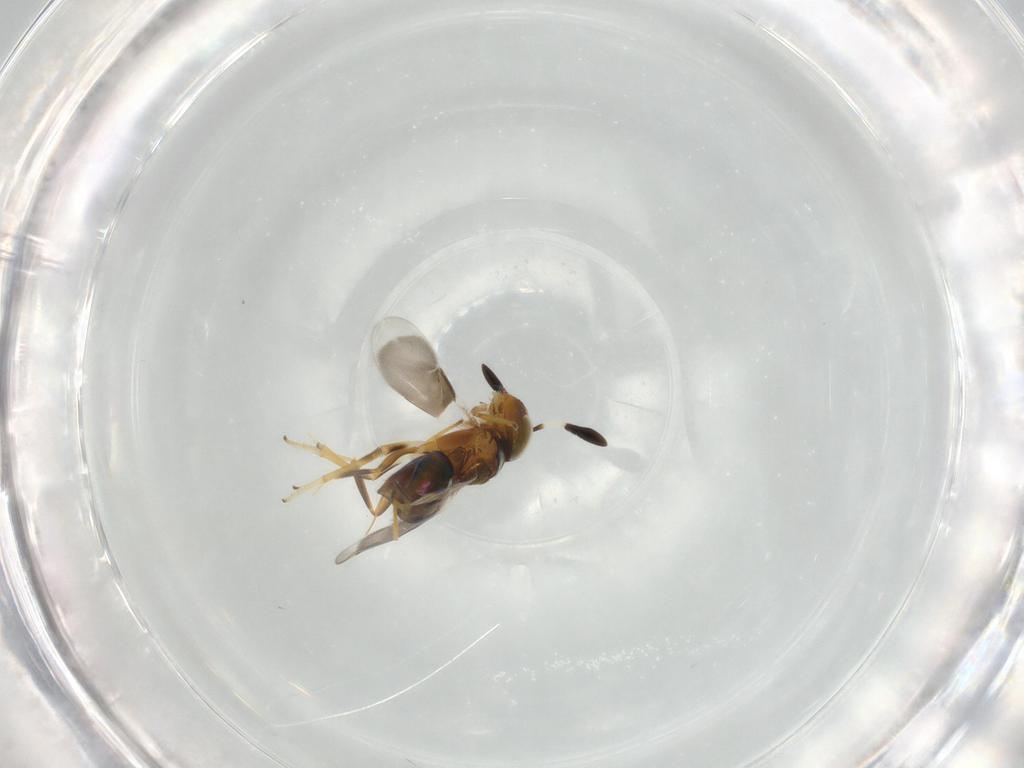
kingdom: Animalia
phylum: Arthropoda
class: Insecta
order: Hymenoptera
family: Encyrtidae
